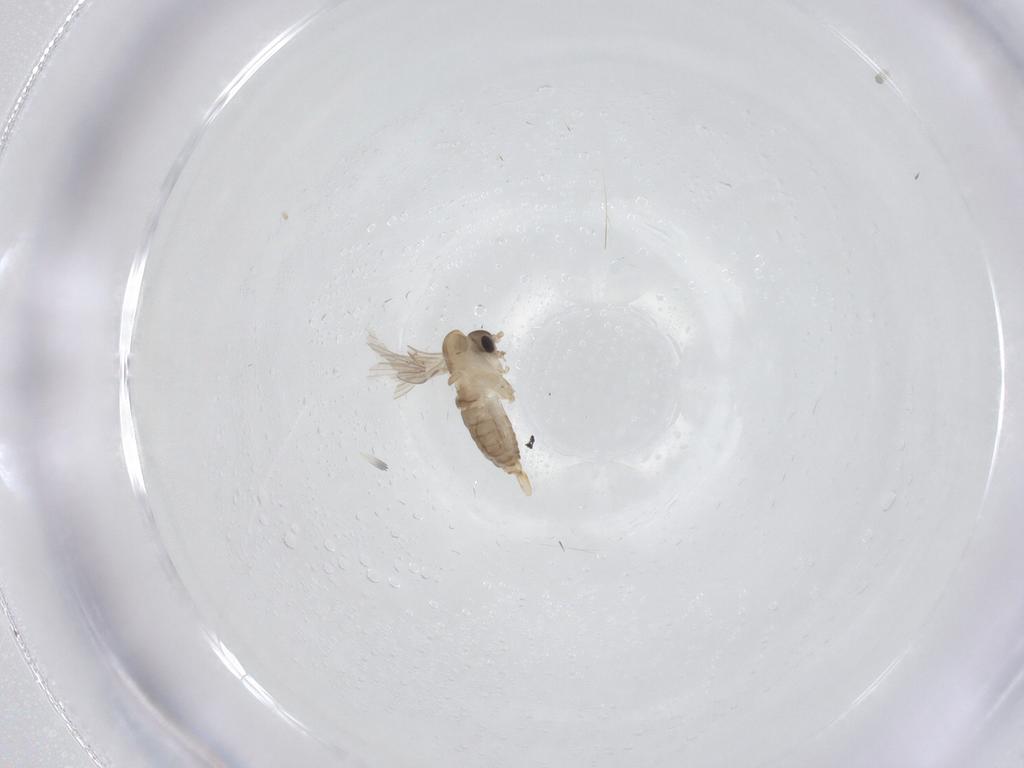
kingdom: Animalia
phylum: Arthropoda
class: Insecta
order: Diptera
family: Psychodidae
